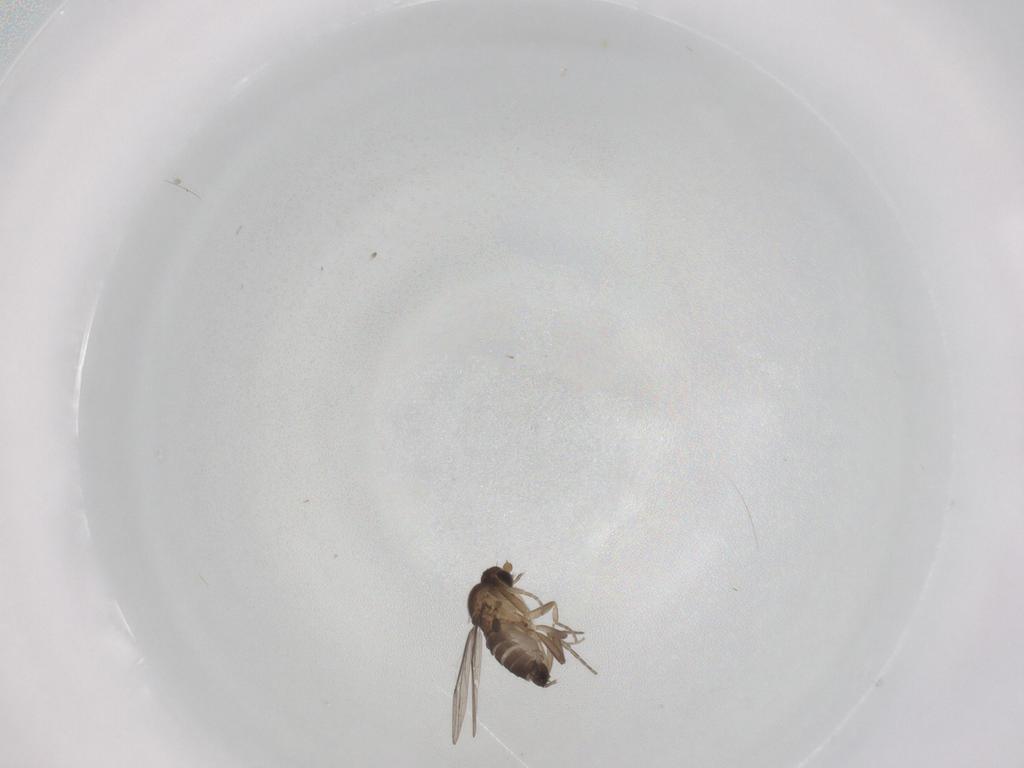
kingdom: Animalia
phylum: Arthropoda
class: Insecta
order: Diptera
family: Phoridae
